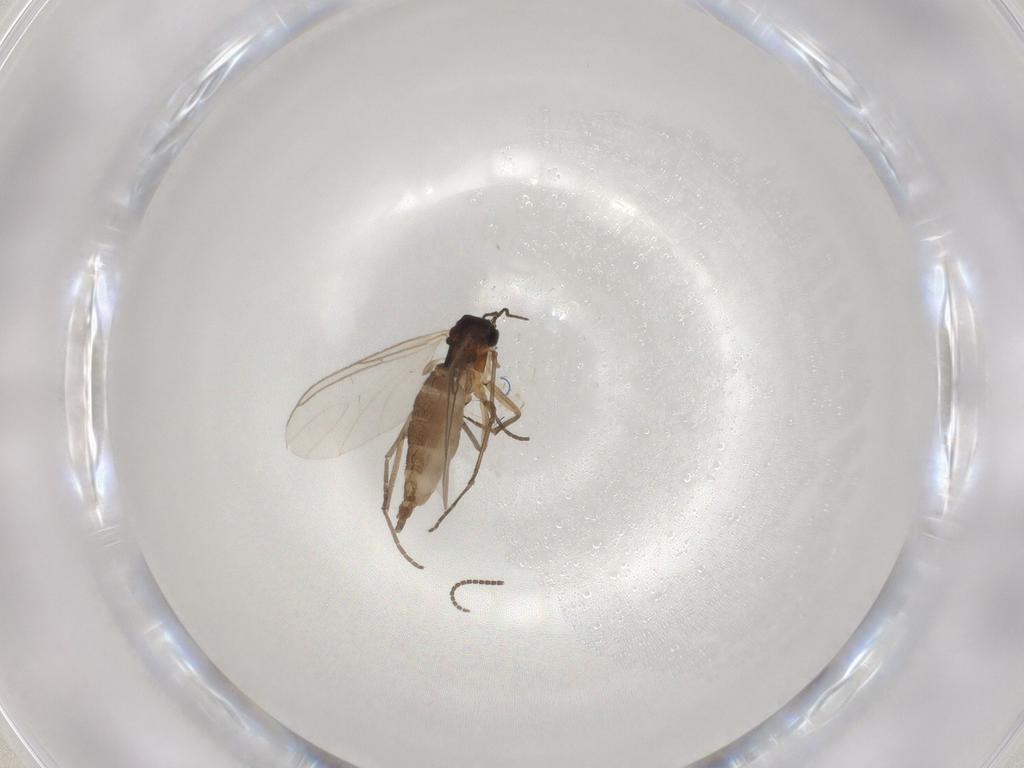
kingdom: Animalia
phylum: Arthropoda
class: Insecta
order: Diptera
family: Sciaridae
